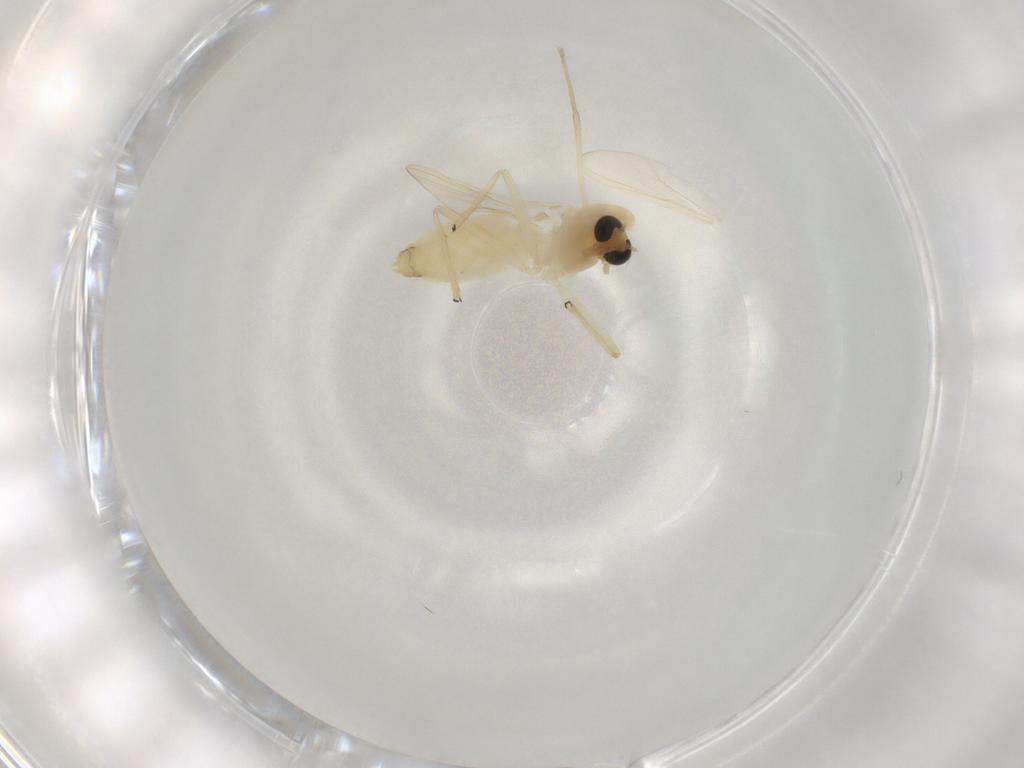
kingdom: Animalia
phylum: Arthropoda
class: Insecta
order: Diptera
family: Chironomidae
